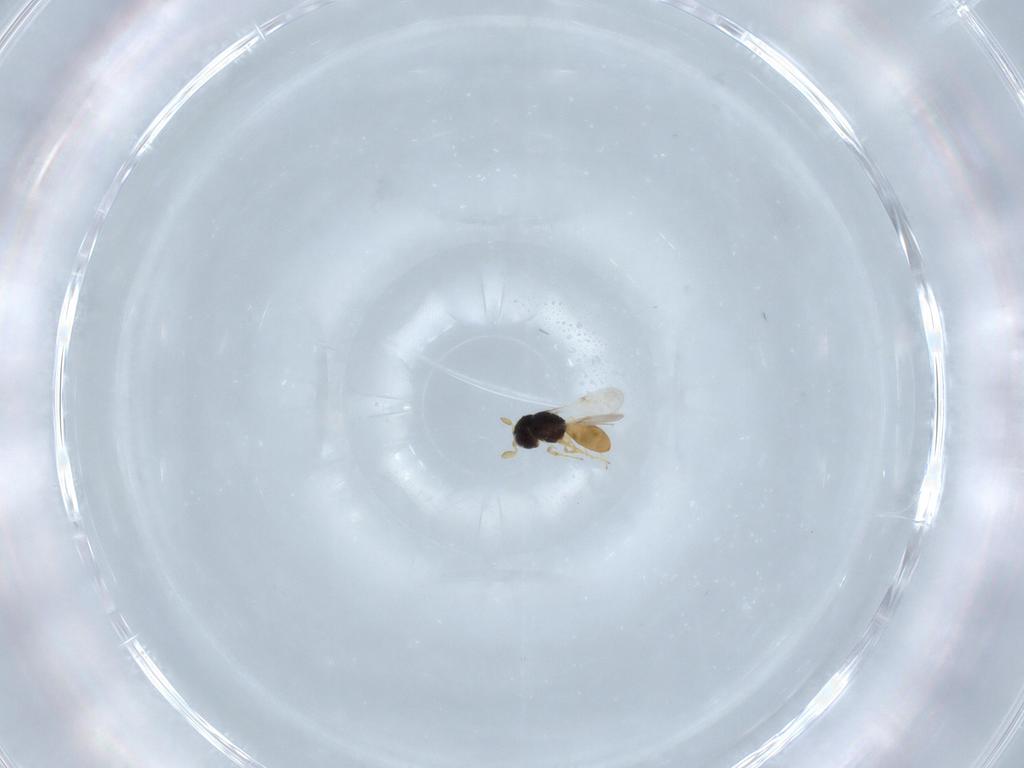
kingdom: Animalia
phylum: Arthropoda
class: Insecta
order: Hymenoptera
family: Scelionidae
